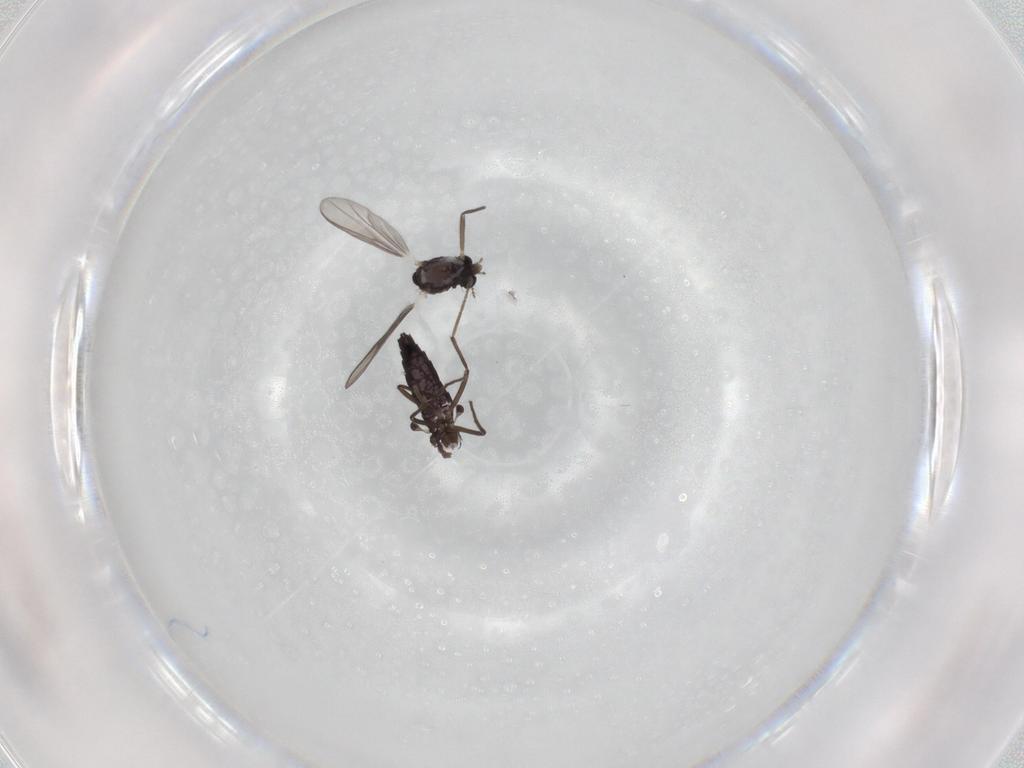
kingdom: Animalia
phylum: Arthropoda
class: Insecta
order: Diptera
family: Chironomidae
